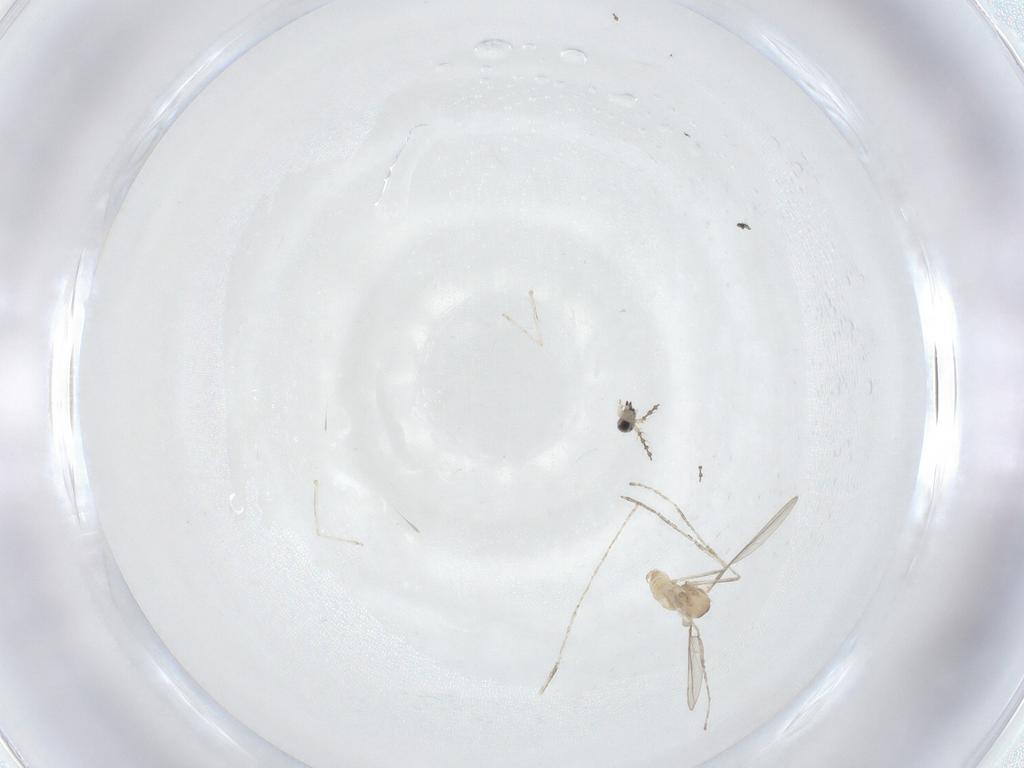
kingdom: Animalia
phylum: Arthropoda
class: Insecta
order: Diptera
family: Cecidomyiidae
